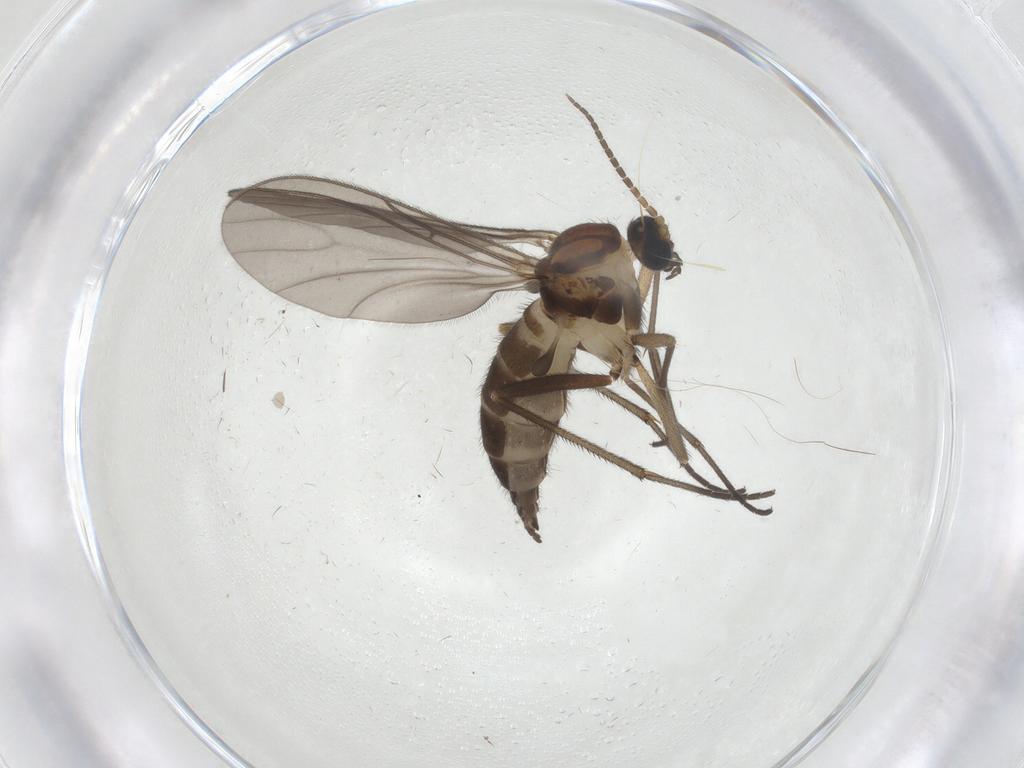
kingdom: Animalia
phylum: Arthropoda
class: Insecta
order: Diptera
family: Sciaridae
